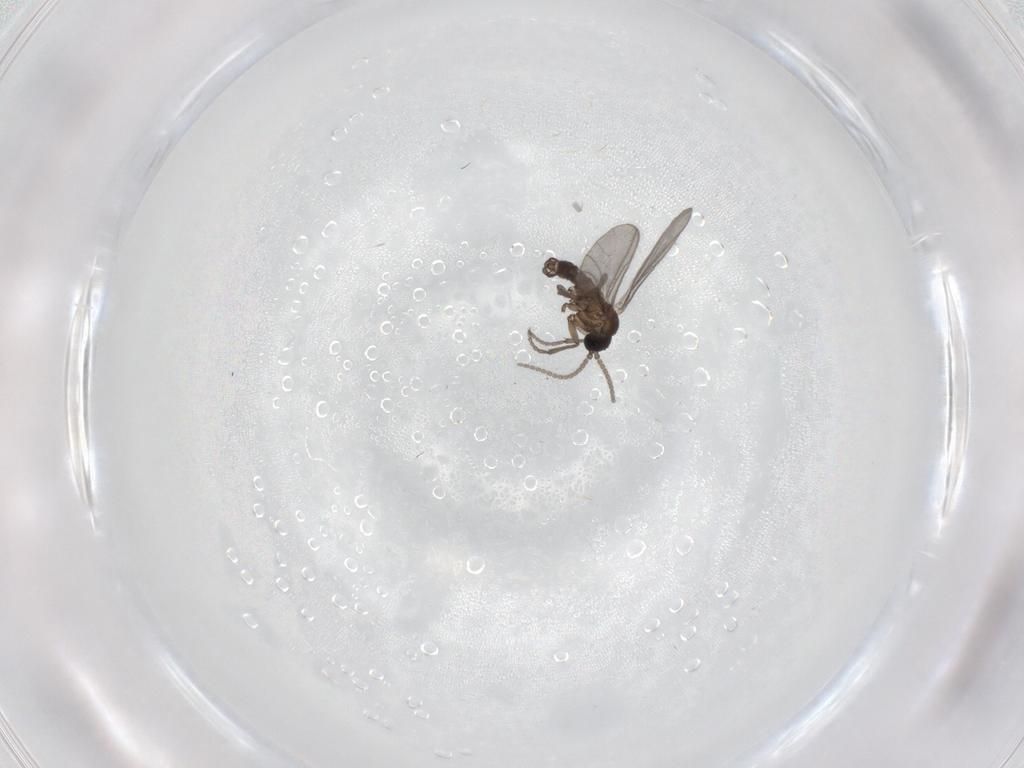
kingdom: Animalia
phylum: Arthropoda
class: Insecta
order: Diptera
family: Sciaridae
